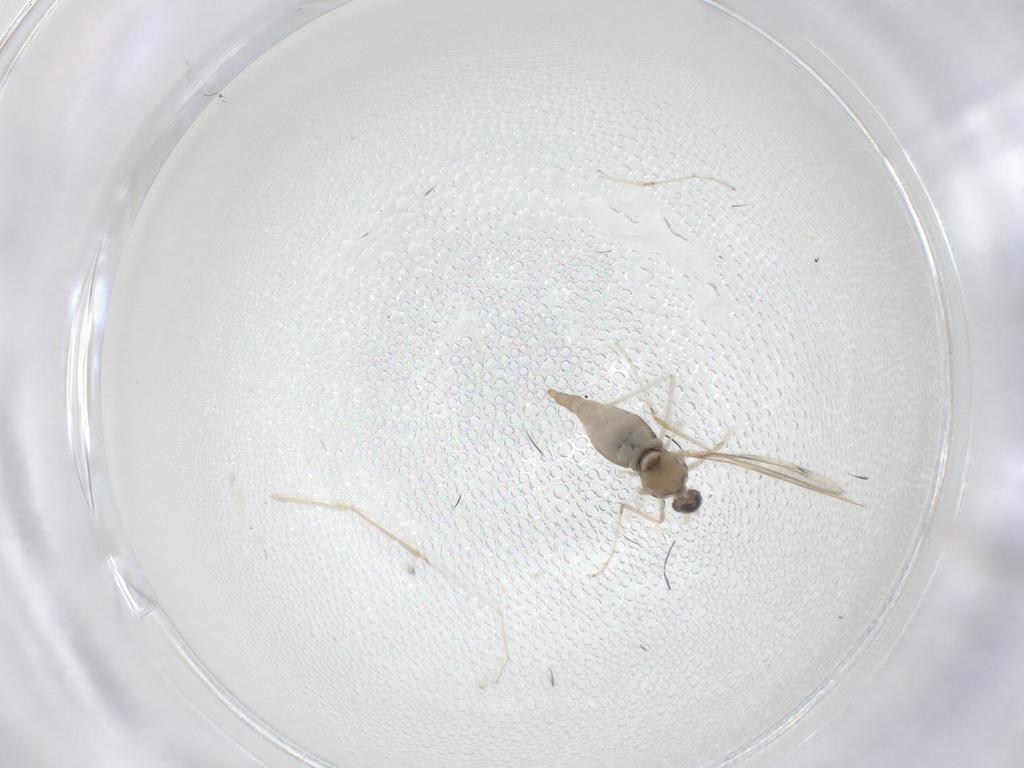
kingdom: Animalia
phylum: Arthropoda
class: Insecta
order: Diptera
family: Cecidomyiidae
